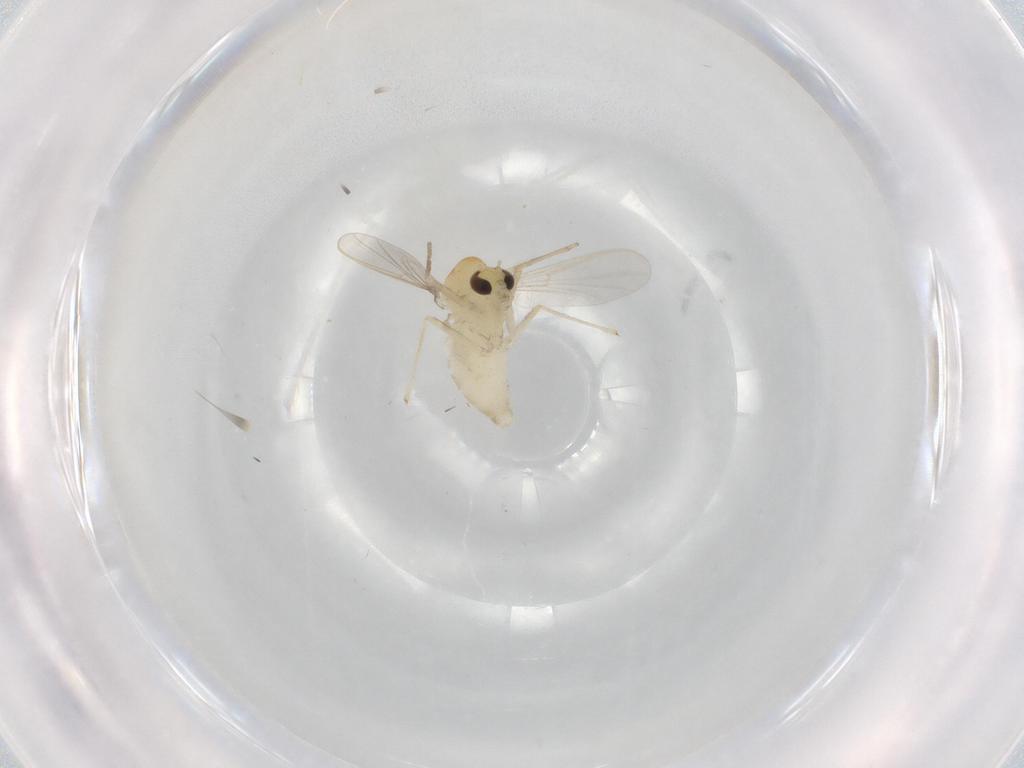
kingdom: Animalia
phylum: Arthropoda
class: Insecta
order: Diptera
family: Chironomidae
